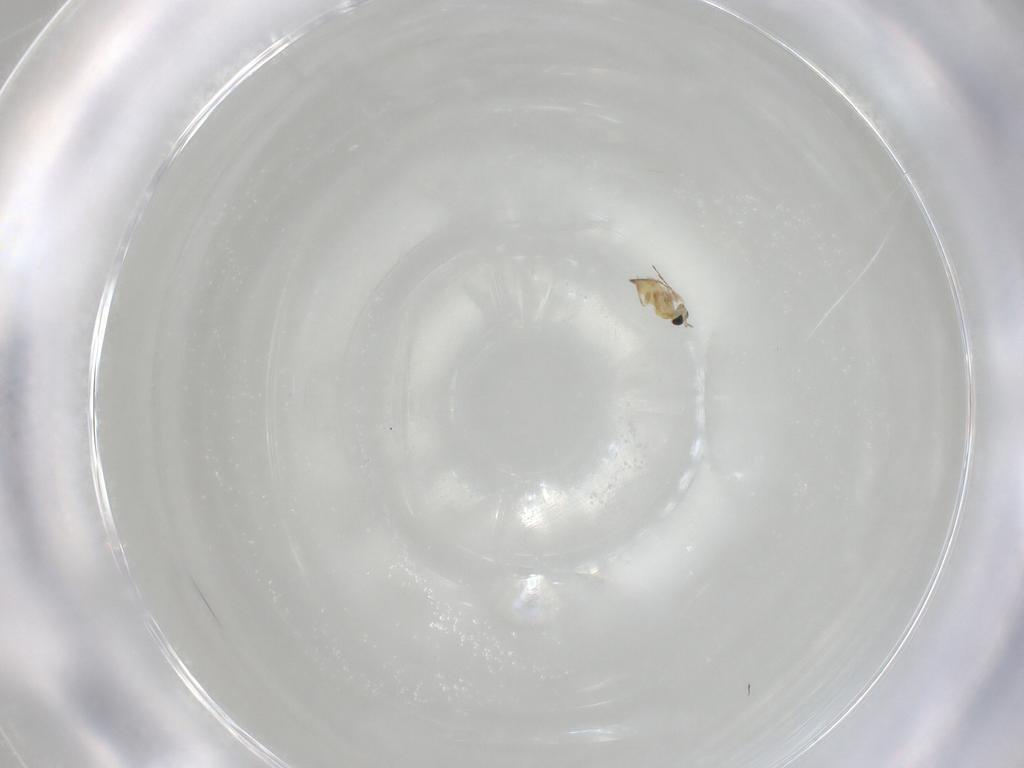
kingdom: Animalia
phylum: Arthropoda
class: Insecta
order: Hymenoptera
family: Trichogrammatidae
